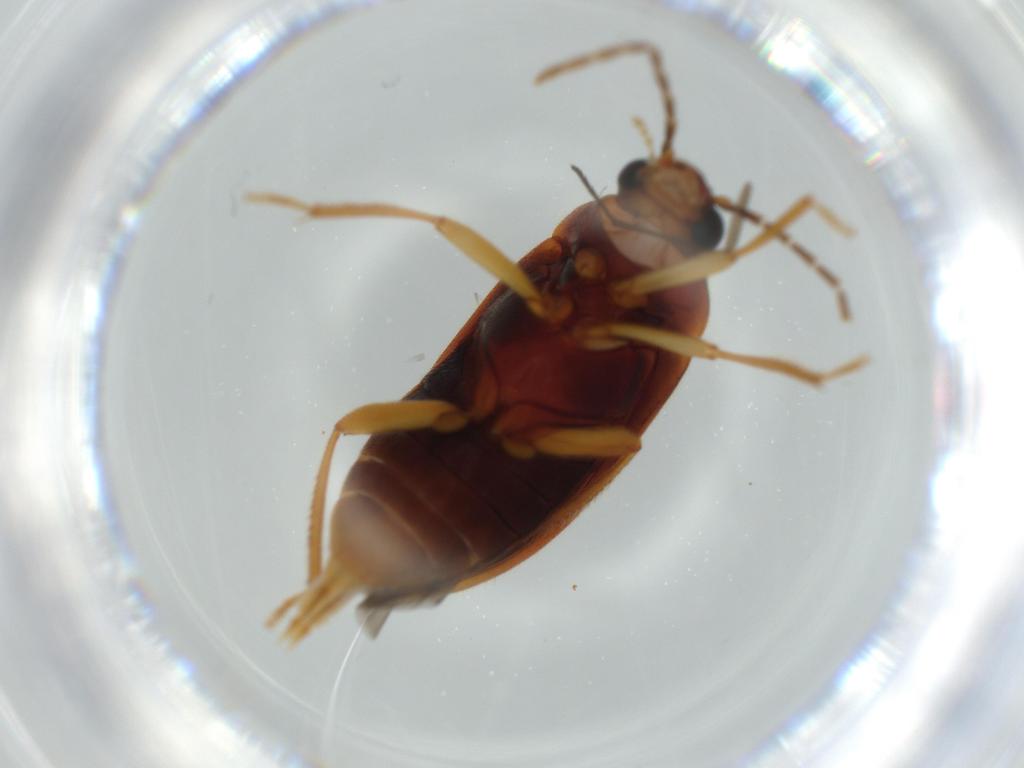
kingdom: Animalia
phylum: Arthropoda
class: Insecta
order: Coleoptera
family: Ptilodactylidae
